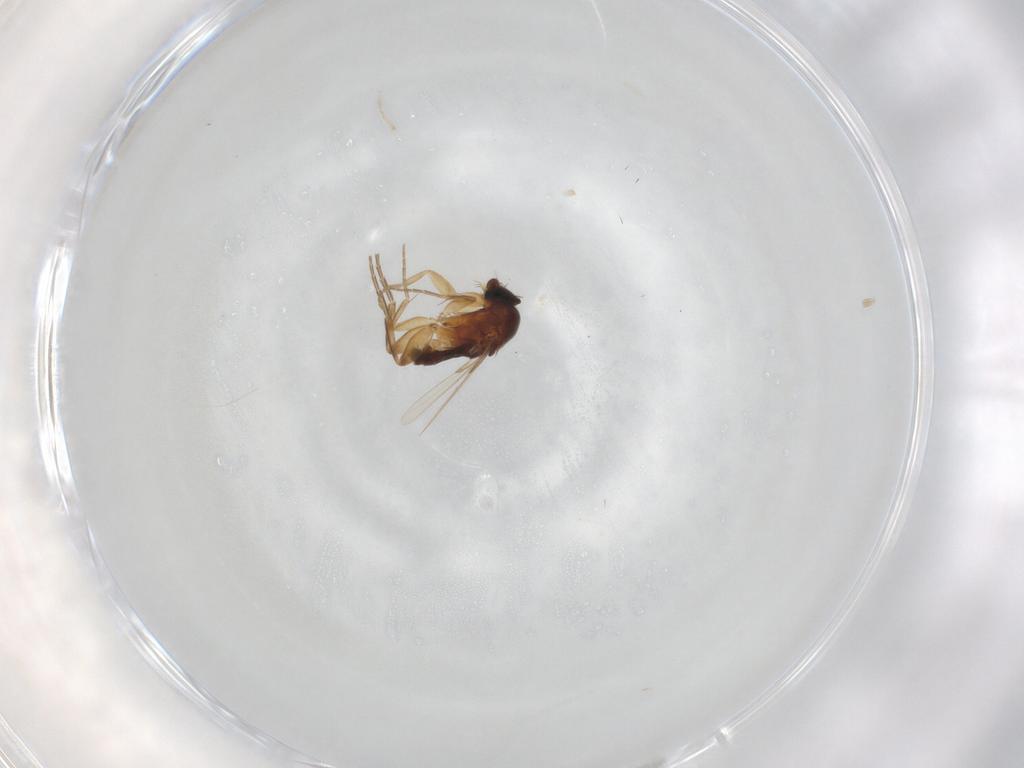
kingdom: Animalia
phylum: Arthropoda
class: Insecta
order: Diptera
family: Phoridae
